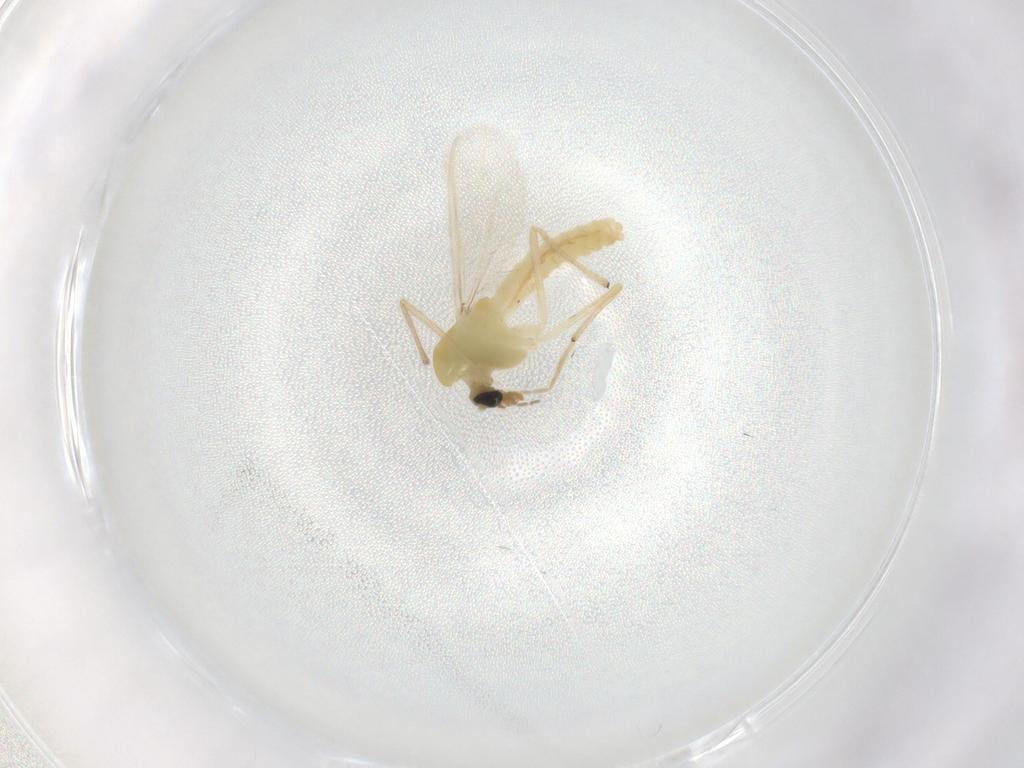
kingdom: Animalia
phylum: Arthropoda
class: Insecta
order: Diptera
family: Chironomidae
